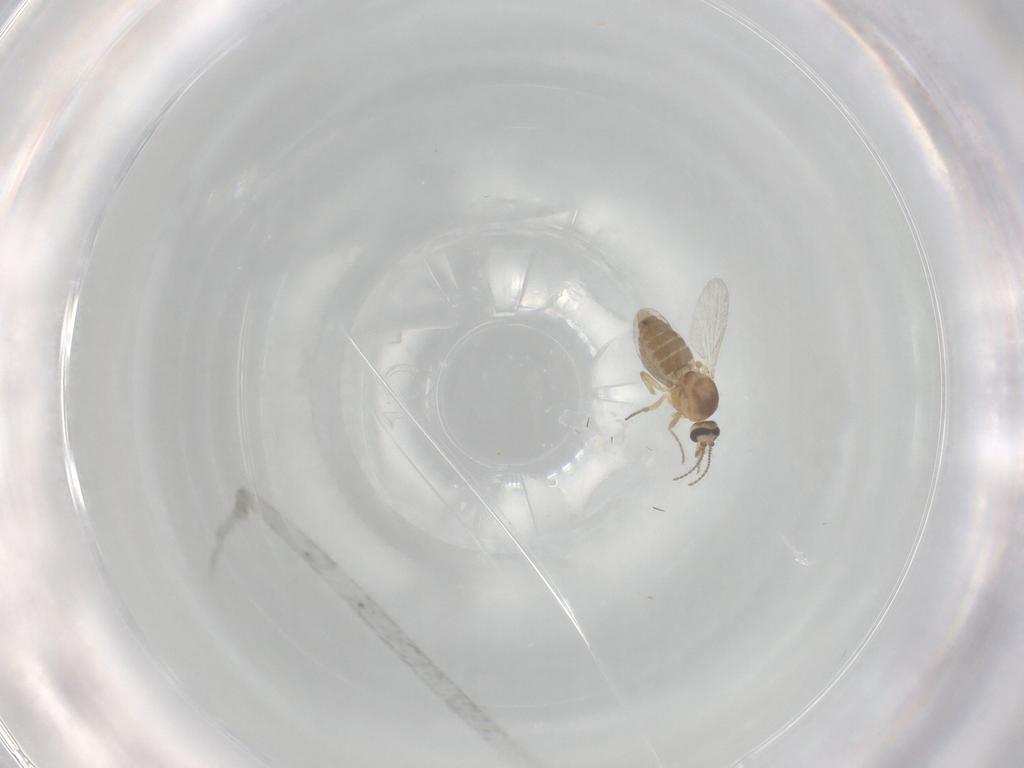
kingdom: Animalia
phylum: Arthropoda
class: Insecta
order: Diptera
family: Ceratopogonidae
